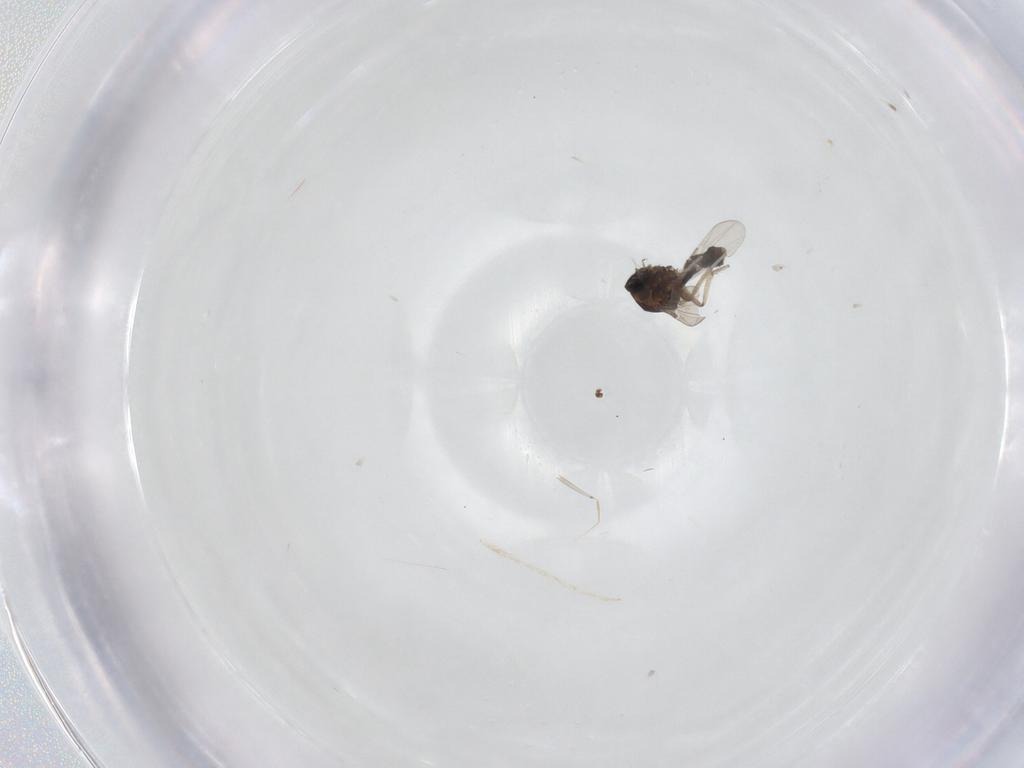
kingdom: Animalia
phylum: Arthropoda
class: Insecta
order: Diptera
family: Ceratopogonidae
